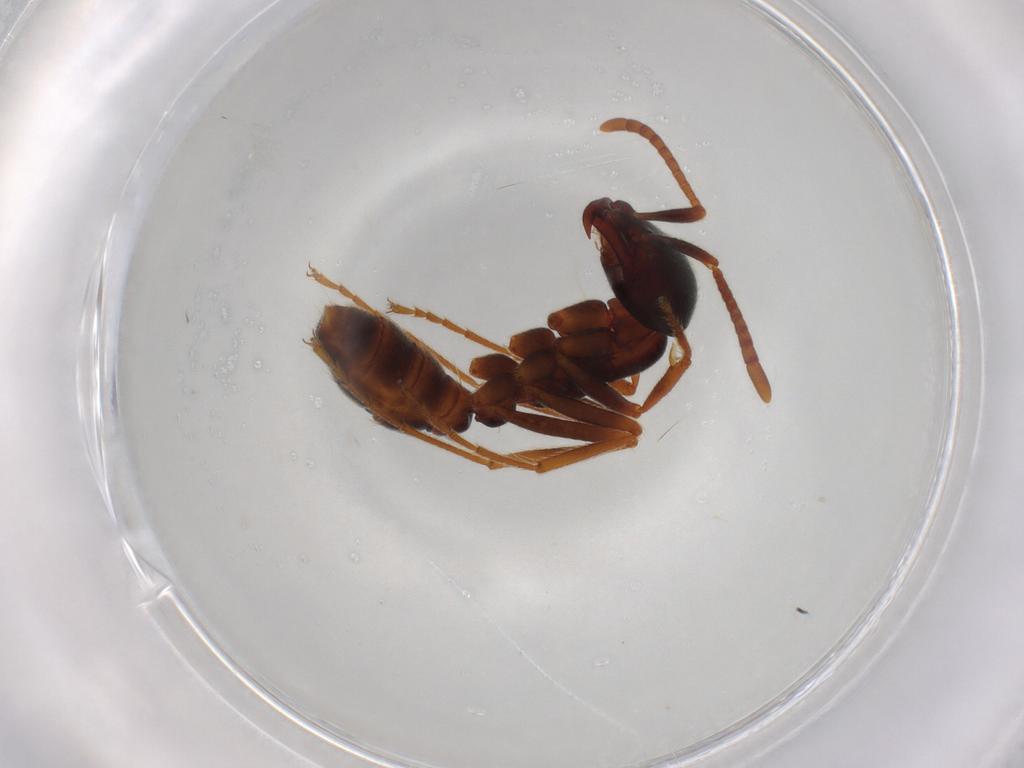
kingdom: Animalia
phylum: Arthropoda
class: Insecta
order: Hymenoptera
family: Formicidae
